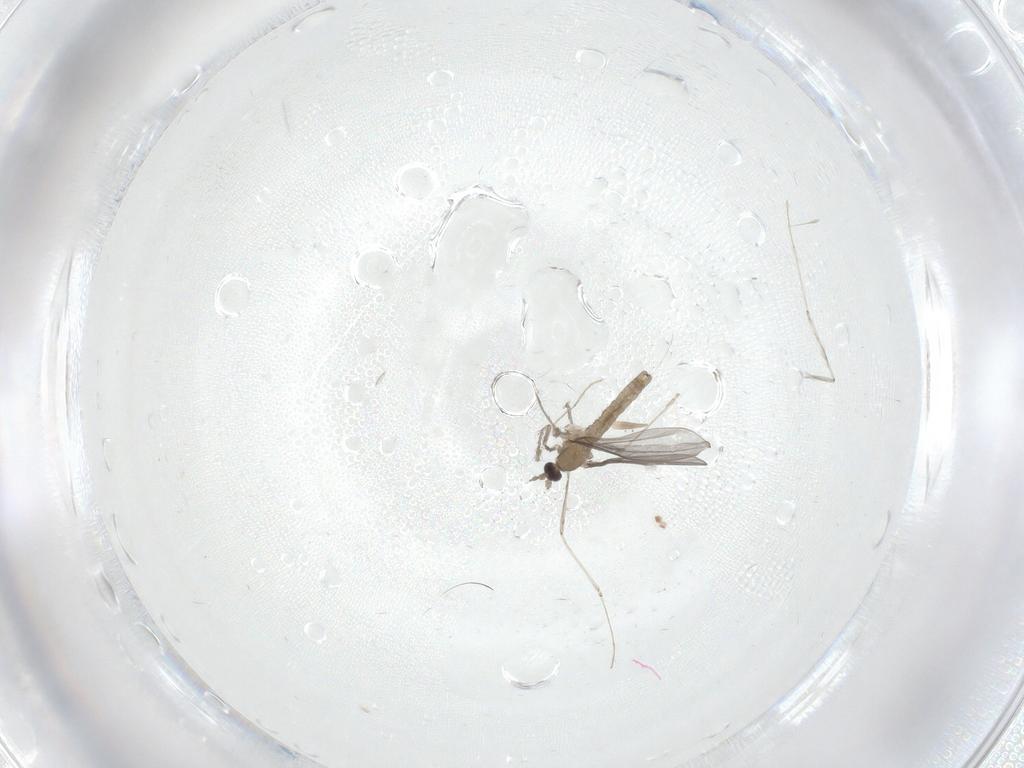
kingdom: Animalia
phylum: Arthropoda
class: Insecta
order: Diptera
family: Cecidomyiidae
